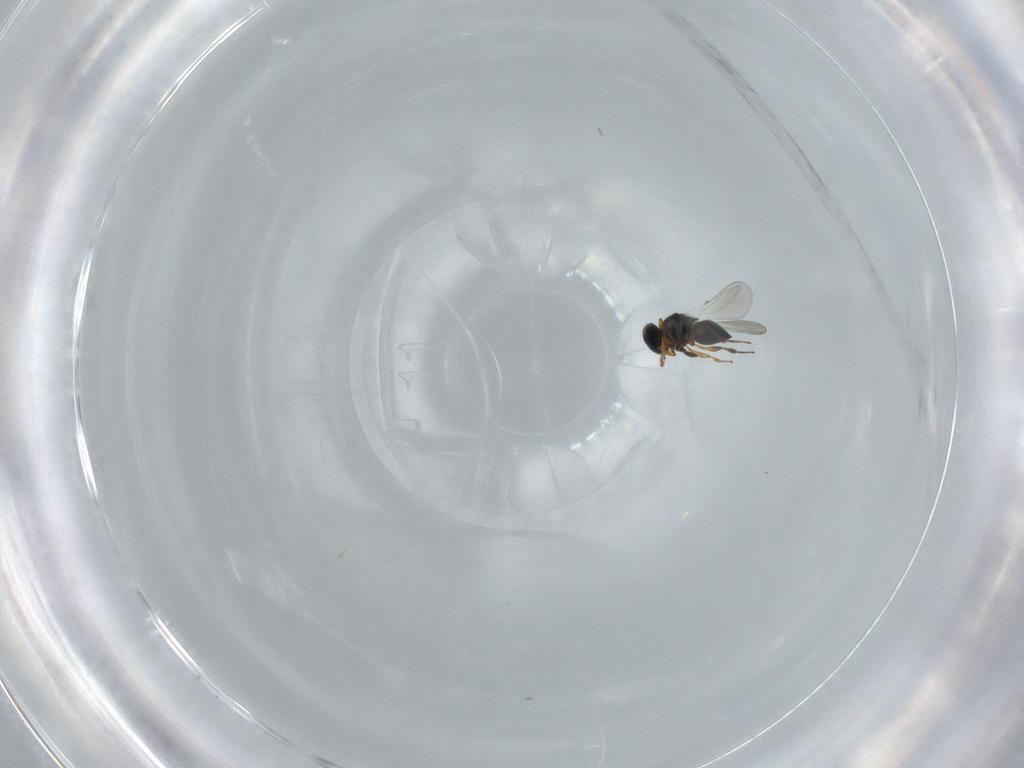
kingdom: Animalia
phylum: Arthropoda
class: Insecta
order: Hymenoptera
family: Platygastridae
